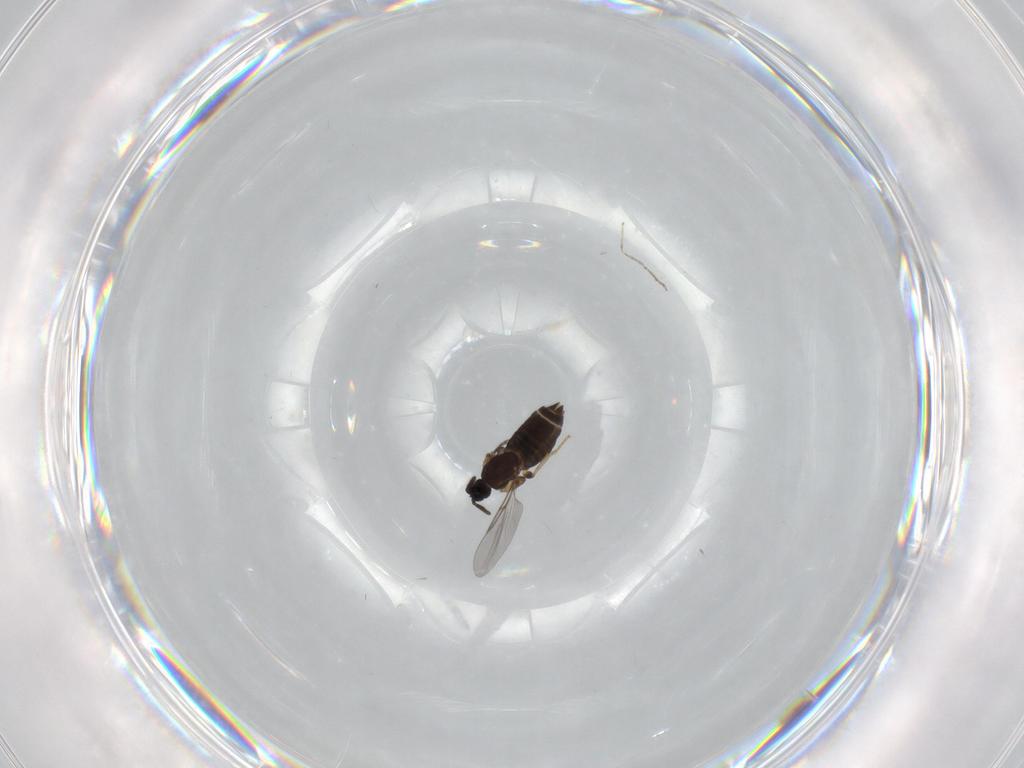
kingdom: Animalia
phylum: Arthropoda
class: Insecta
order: Diptera
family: Scatopsidae
